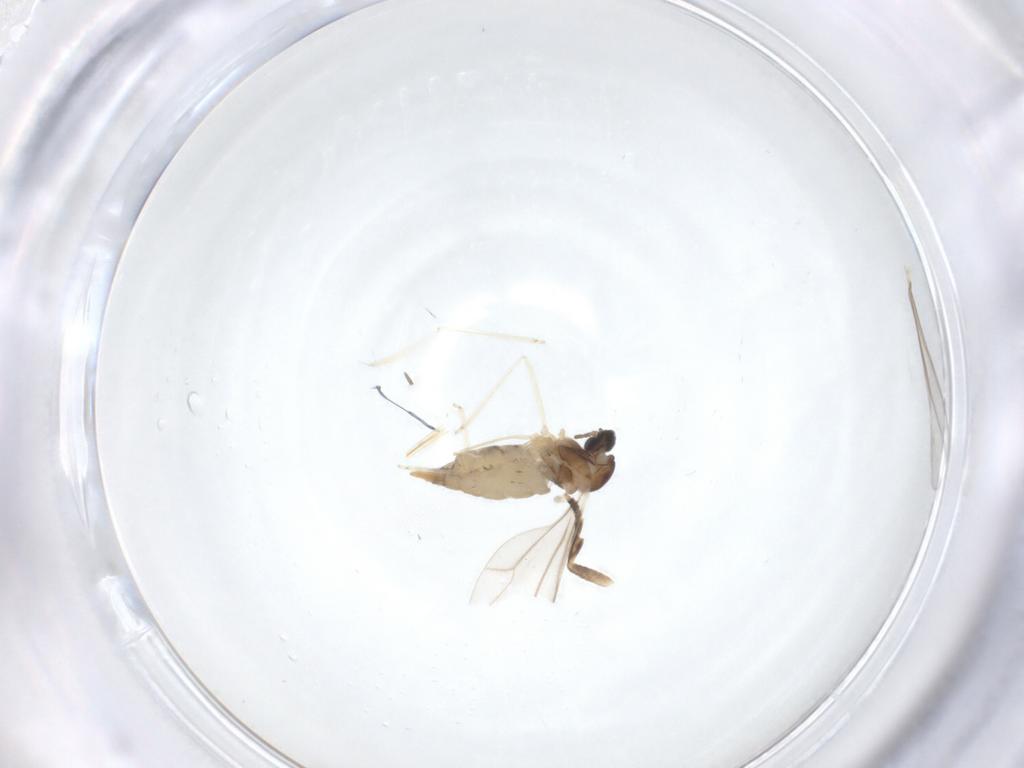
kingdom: Animalia
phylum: Arthropoda
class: Insecta
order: Diptera
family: Cecidomyiidae
